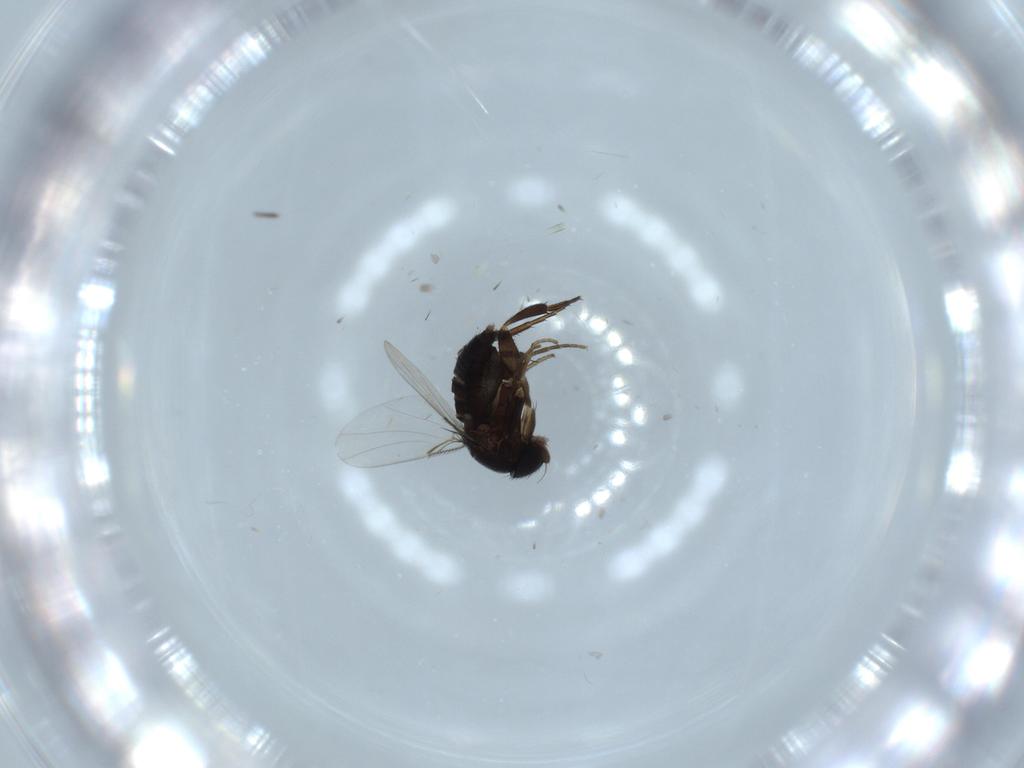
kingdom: Animalia
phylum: Arthropoda
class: Insecta
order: Diptera
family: Phoridae
